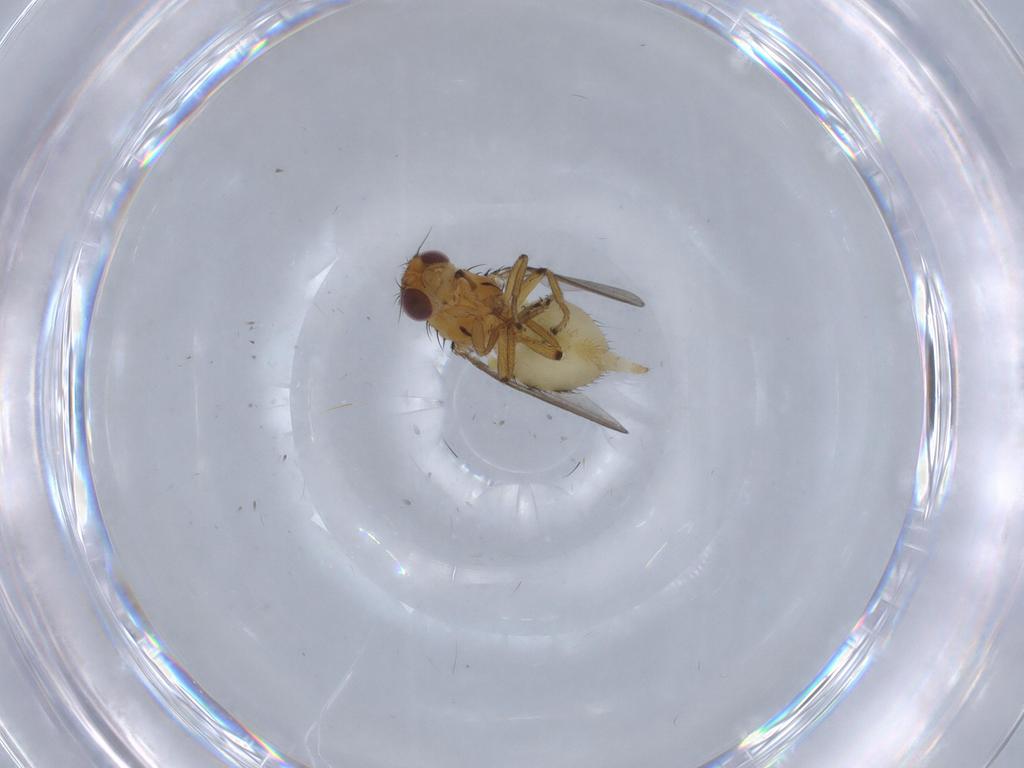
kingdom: Animalia
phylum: Arthropoda
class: Insecta
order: Diptera
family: Milichiidae
